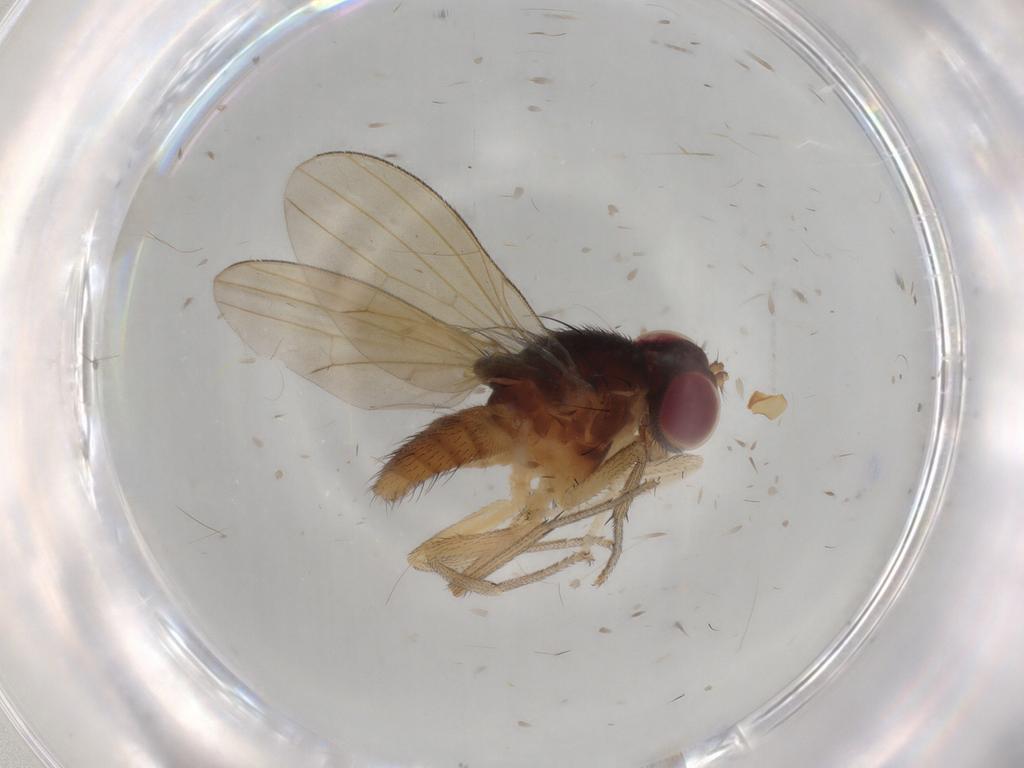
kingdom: Animalia
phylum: Arthropoda
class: Insecta
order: Diptera
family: Lauxaniidae
